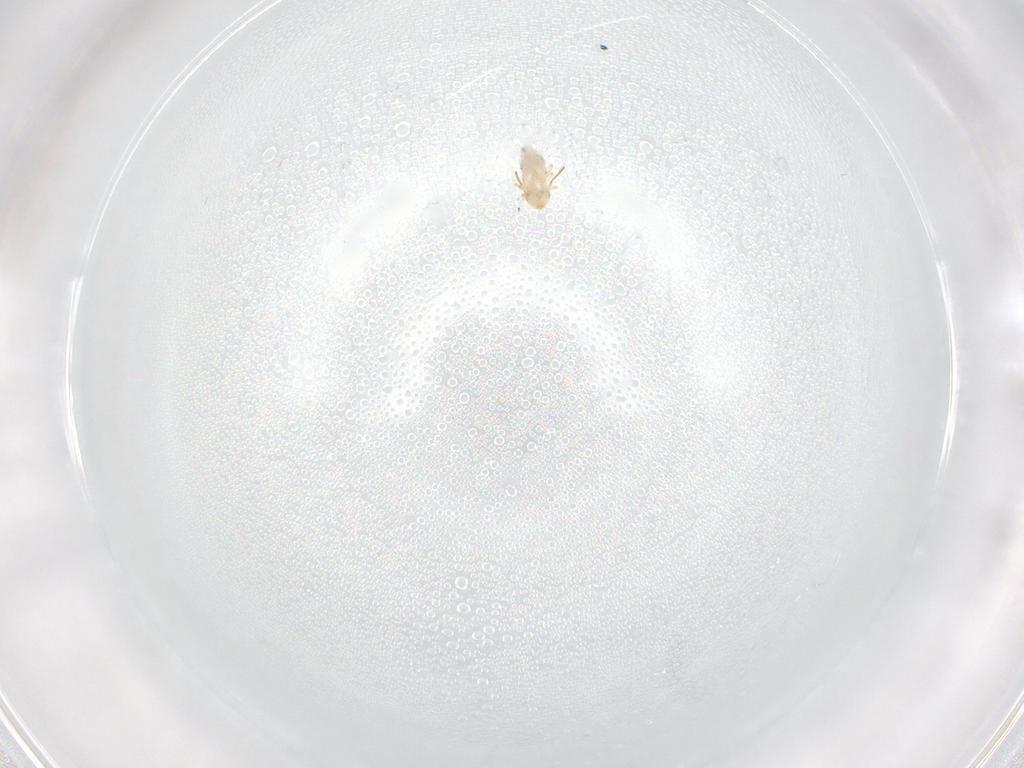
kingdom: Animalia
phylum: Arthropoda
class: Collembola
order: Symphypleona
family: Bourletiellidae
